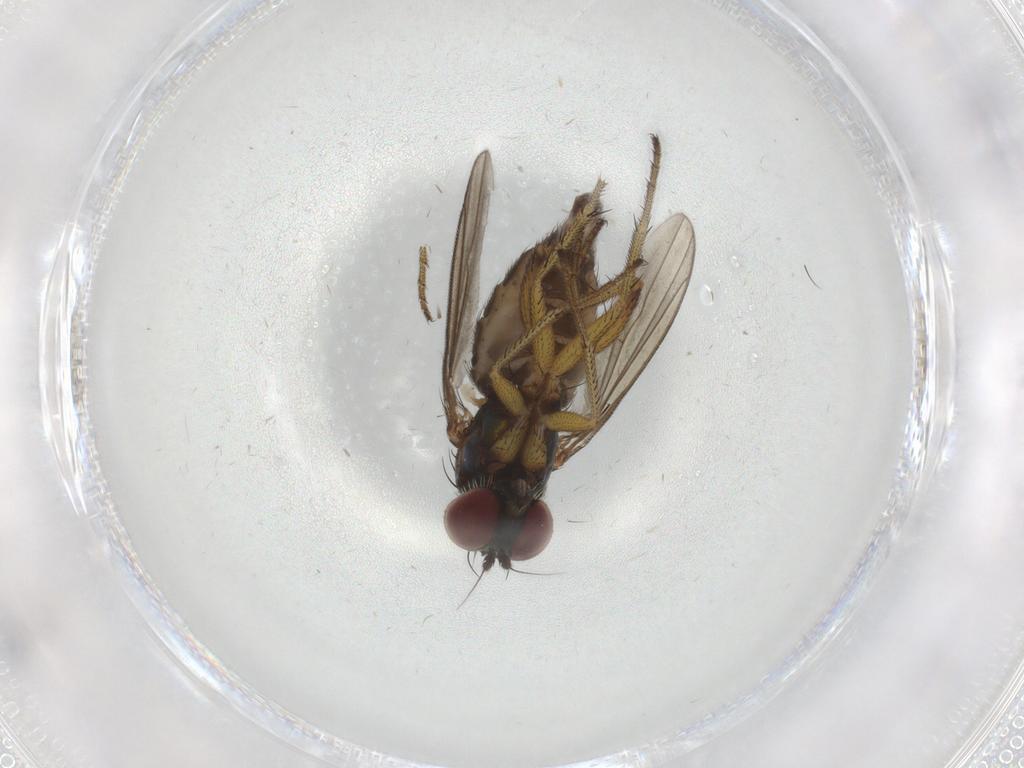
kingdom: Animalia
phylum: Arthropoda
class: Insecta
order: Diptera
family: Dolichopodidae
